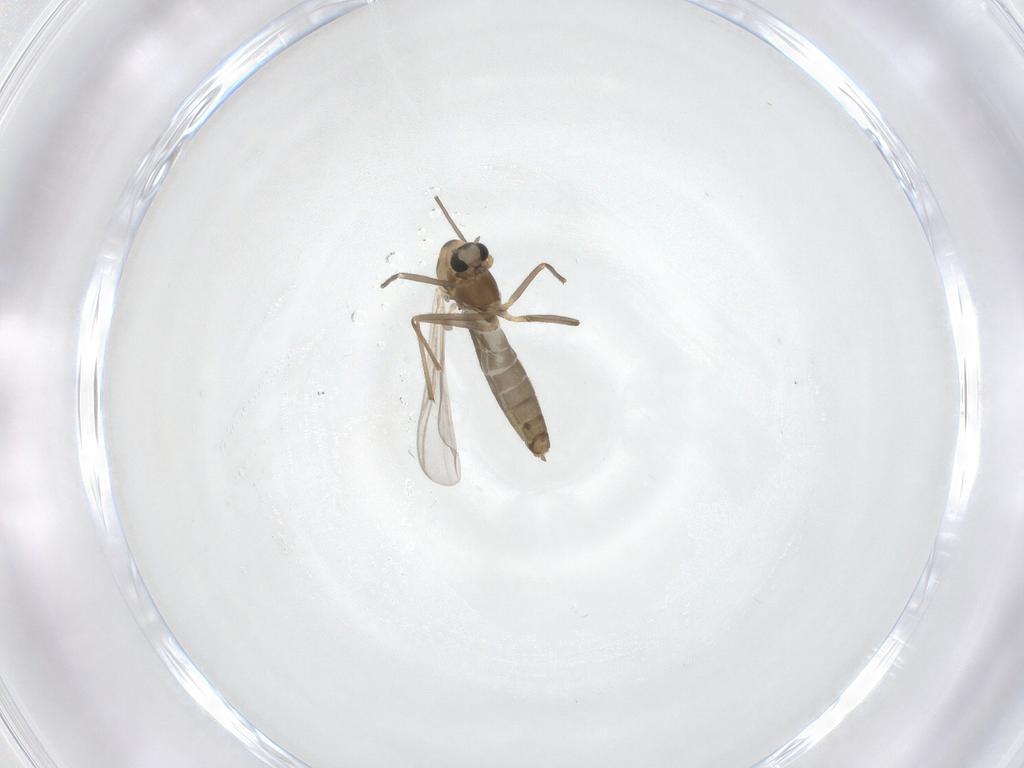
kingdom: Animalia
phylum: Arthropoda
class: Insecta
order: Diptera
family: Chironomidae
